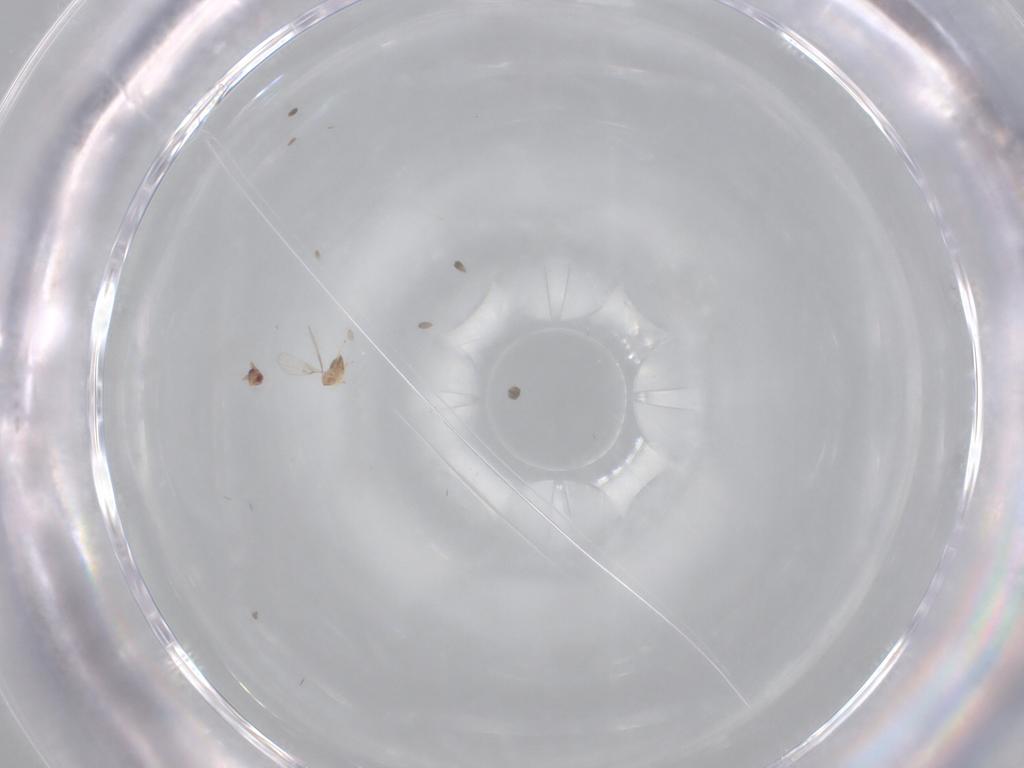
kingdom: Animalia
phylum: Arthropoda
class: Insecta
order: Hymenoptera
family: Trichogrammatidae
